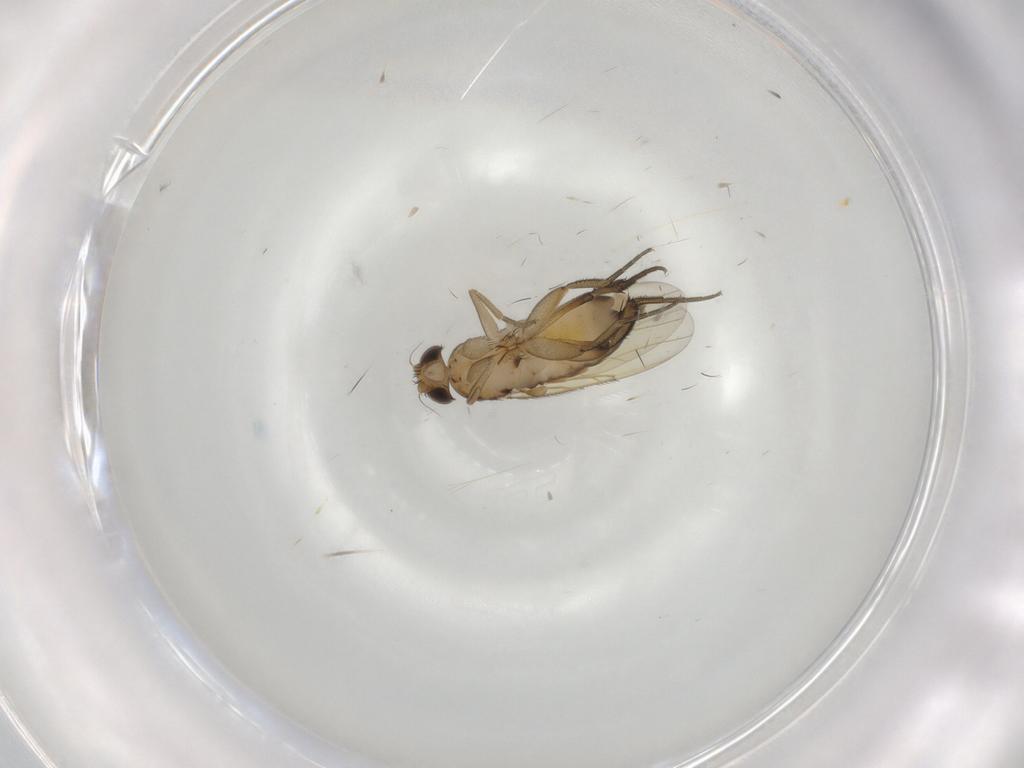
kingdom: Animalia
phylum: Arthropoda
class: Insecta
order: Diptera
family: Phoridae
